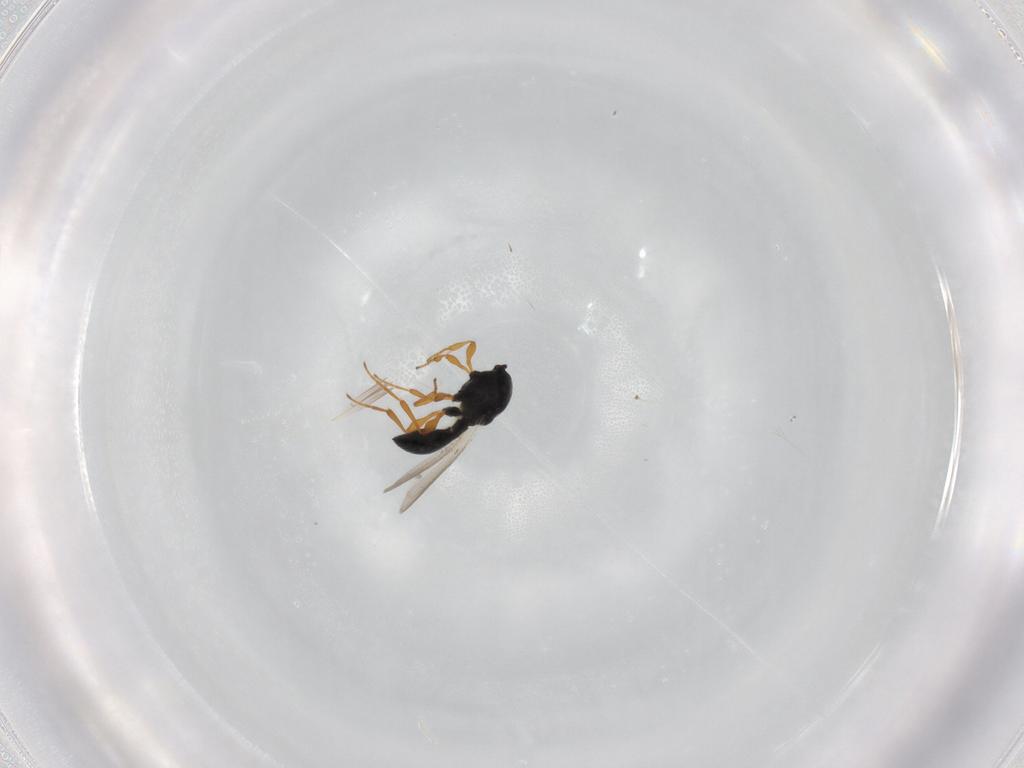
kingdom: Animalia
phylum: Arthropoda
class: Insecta
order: Hymenoptera
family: Platygastridae
